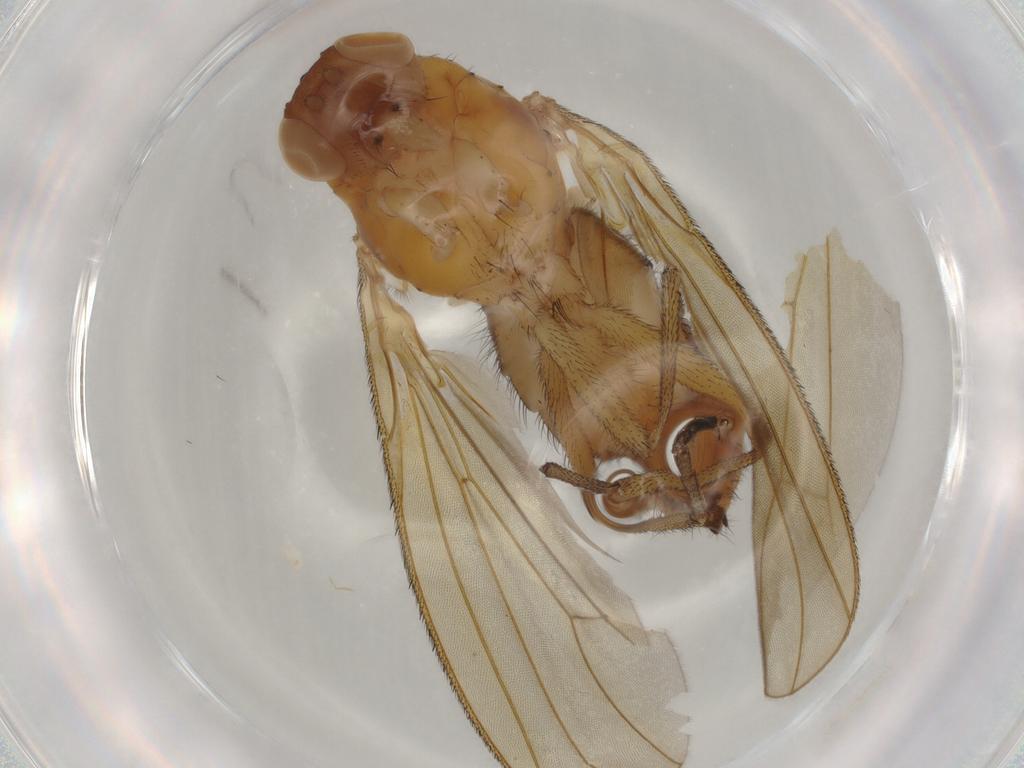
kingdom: Animalia
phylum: Arthropoda
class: Insecta
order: Diptera
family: Heleomyzidae
